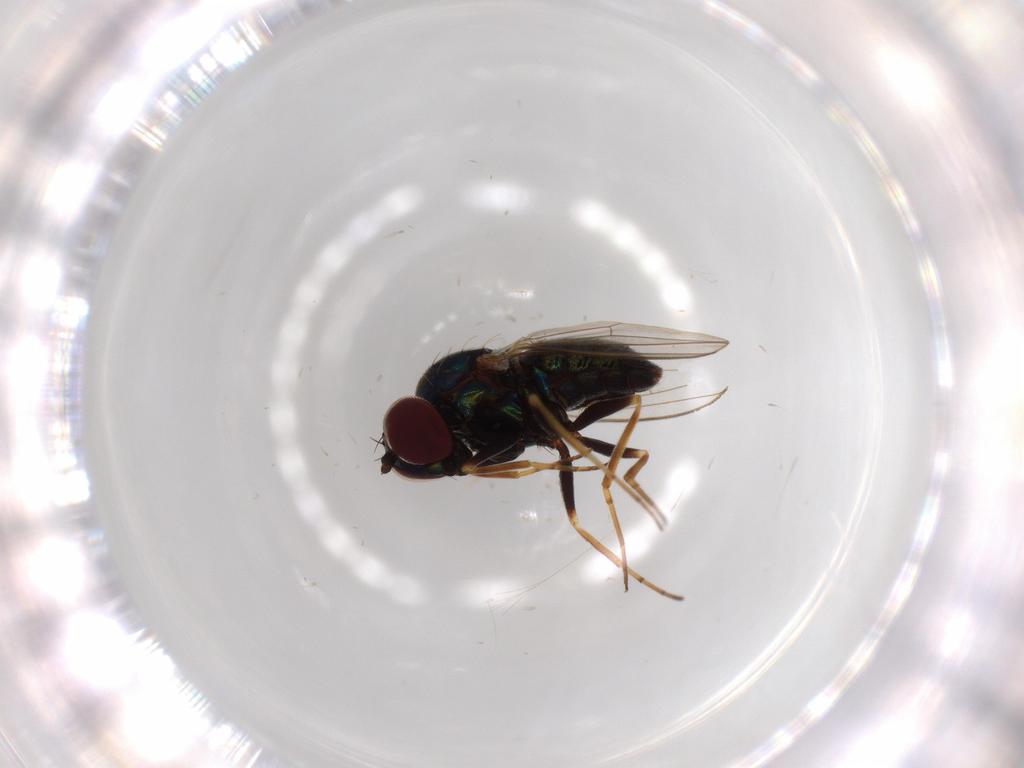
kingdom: Animalia
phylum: Arthropoda
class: Insecta
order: Diptera
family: Dolichopodidae
